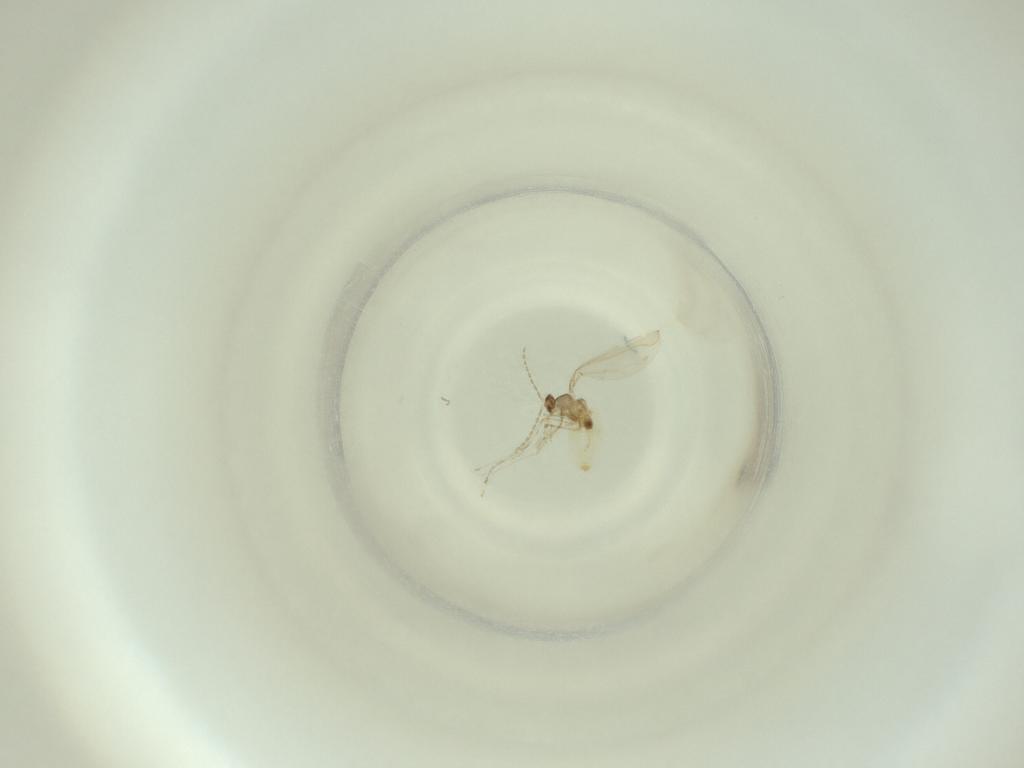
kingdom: Animalia
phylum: Arthropoda
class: Insecta
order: Diptera
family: Cecidomyiidae
